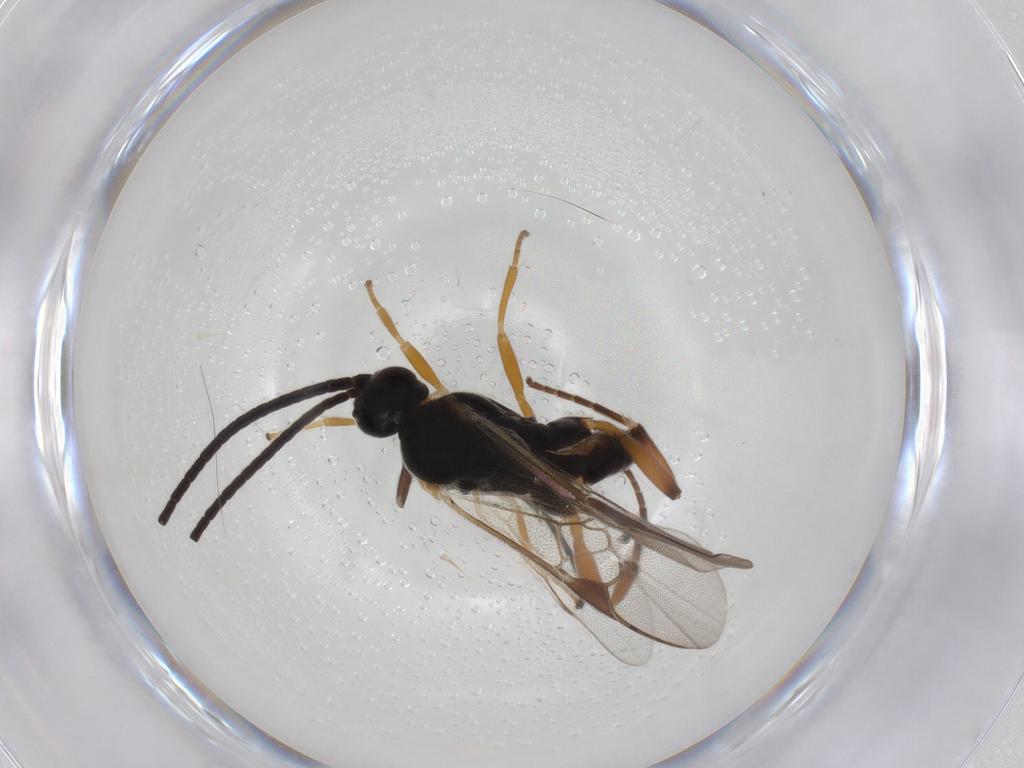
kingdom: Animalia
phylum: Arthropoda
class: Insecta
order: Hymenoptera
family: Braconidae
